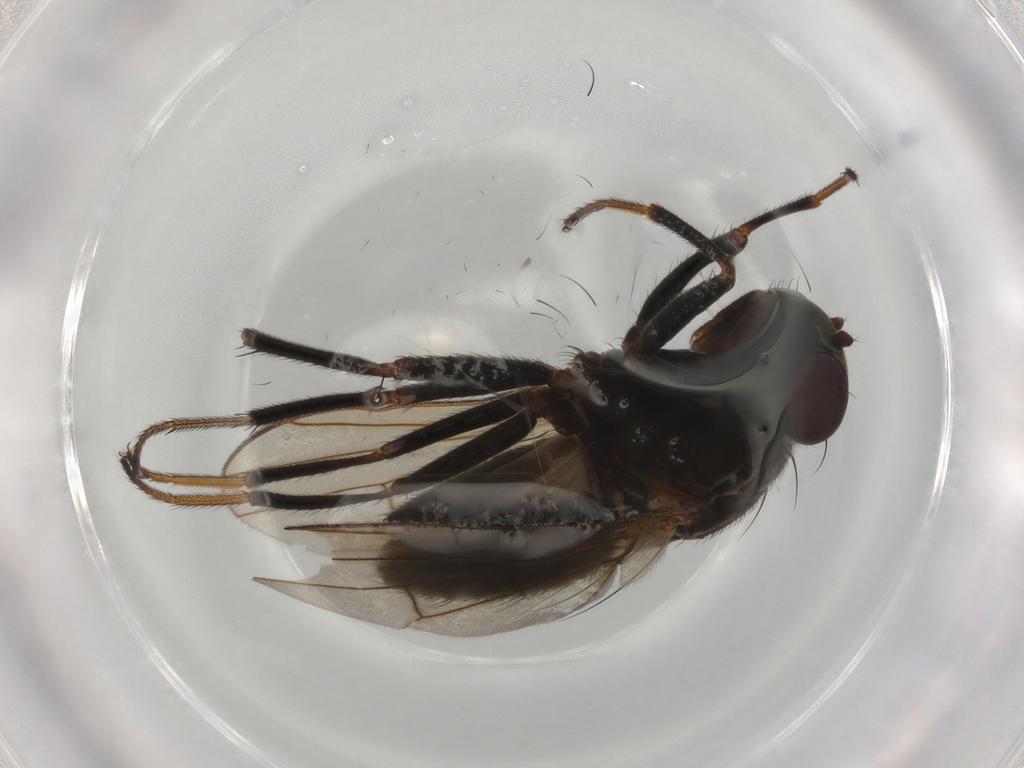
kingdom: Animalia
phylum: Arthropoda
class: Insecta
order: Diptera
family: Ephydridae
